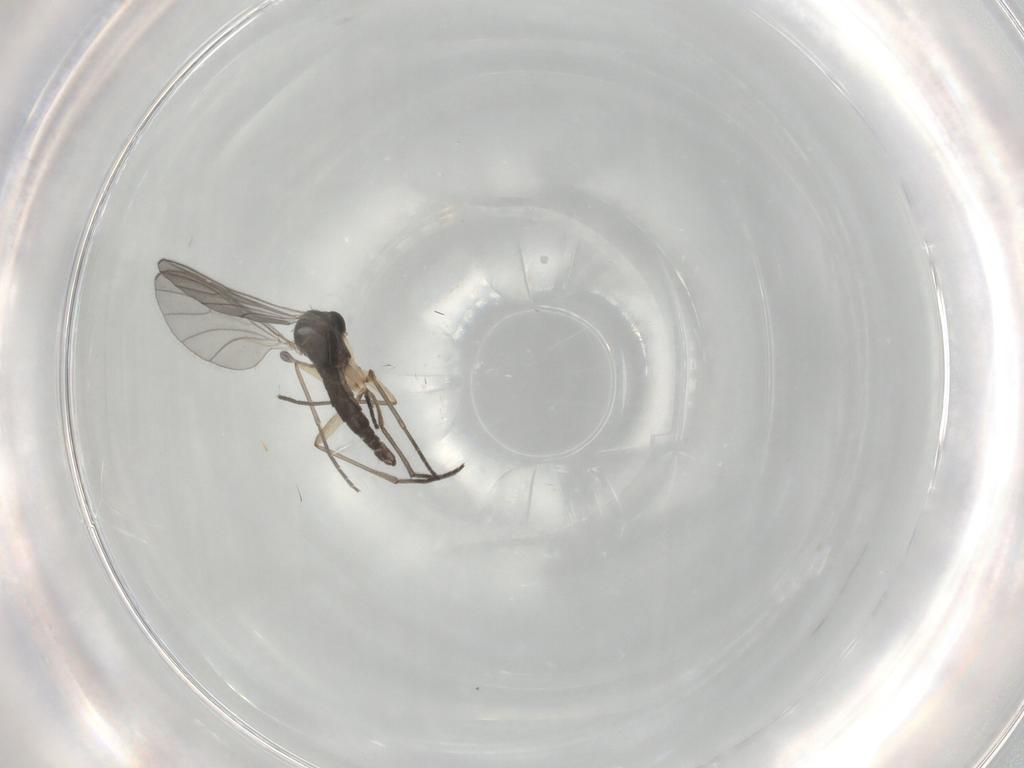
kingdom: Animalia
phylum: Arthropoda
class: Insecta
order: Diptera
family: Sciaridae
